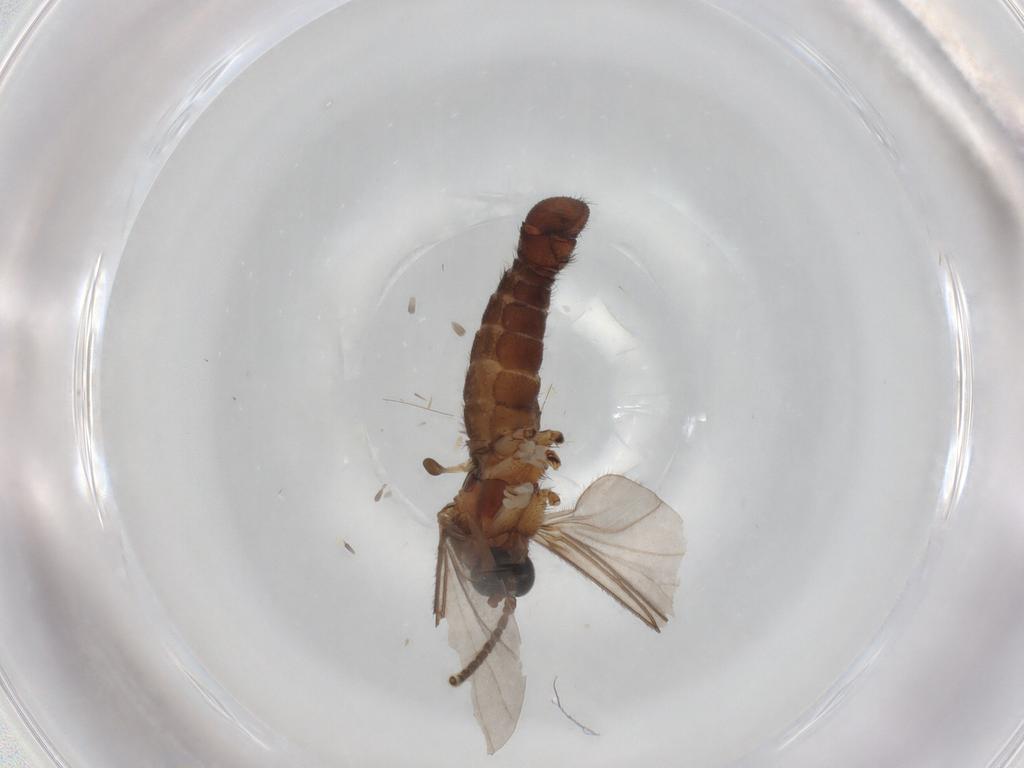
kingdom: Animalia
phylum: Arthropoda
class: Insecta
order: Diptera
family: Sciaridae
